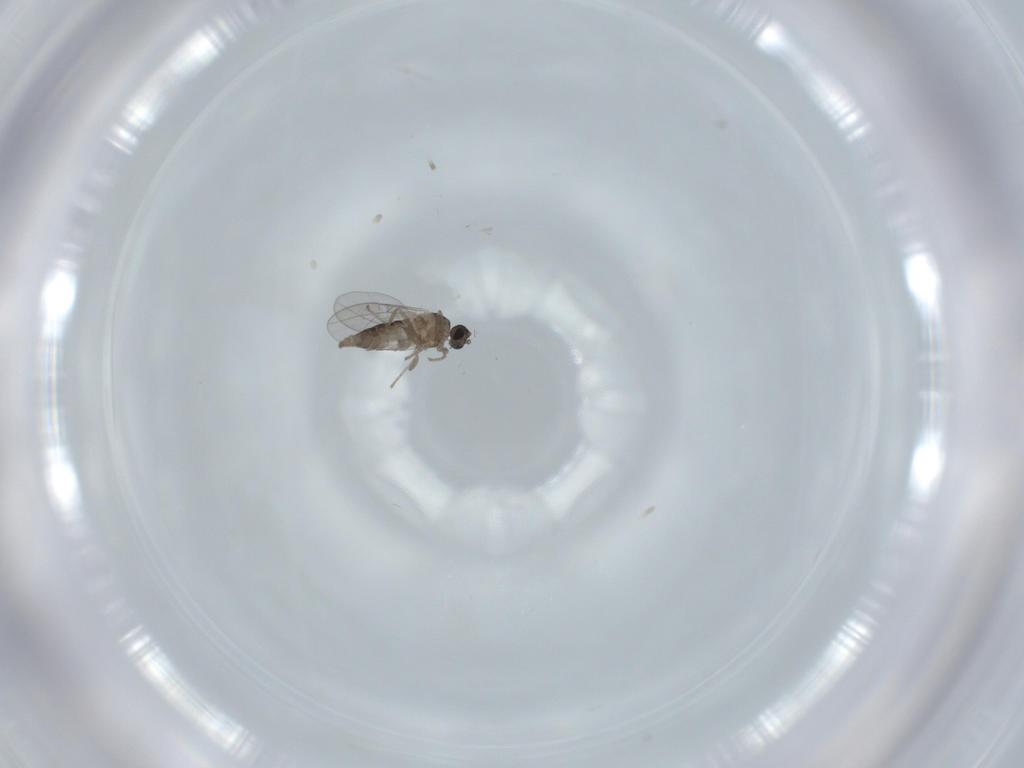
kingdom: Animalia
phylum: Arthropoda
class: Insecta
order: Diptera
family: Cecidomyiidae
